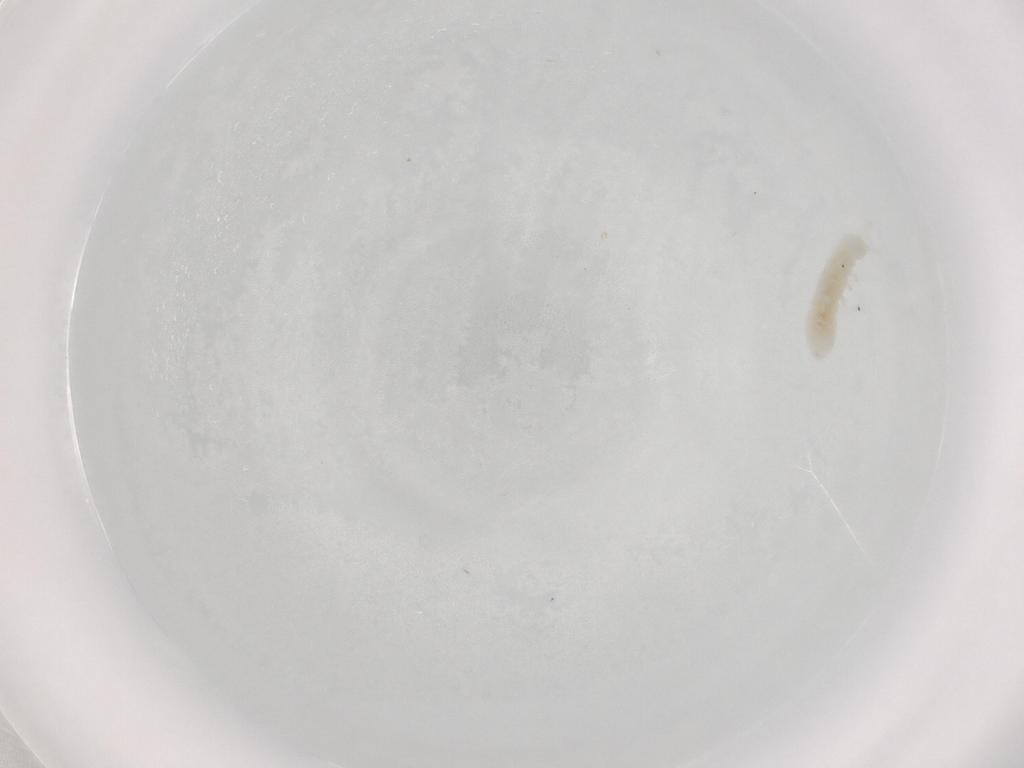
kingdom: Animalia
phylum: Arthropoda
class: Collembola
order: Poduromorpha
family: Onychiuridae
